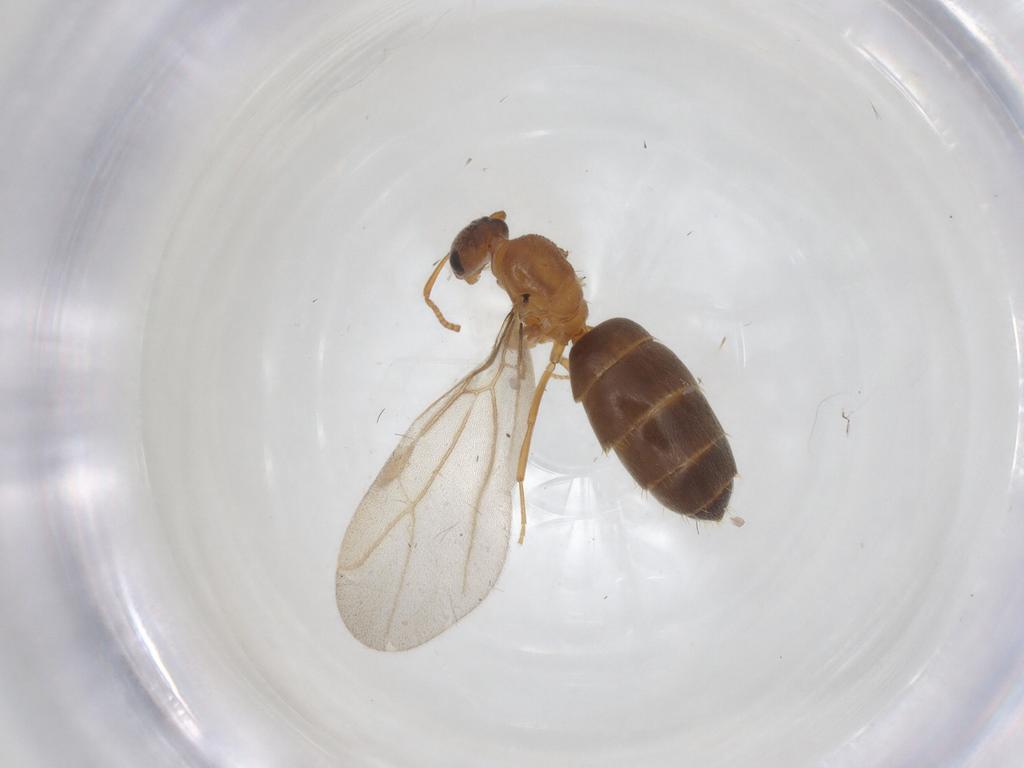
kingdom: Animalia
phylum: Arthropoda
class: Insecta
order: Hymenoptera
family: Formicidae
